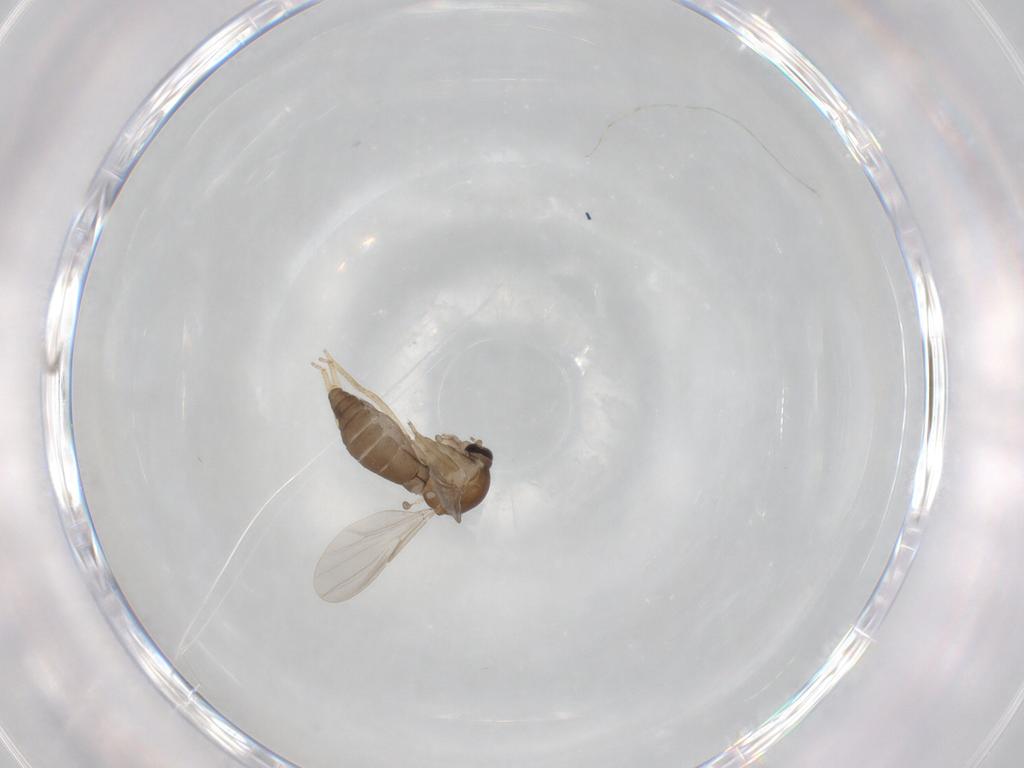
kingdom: Animalia
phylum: Arthropoda
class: Insecta
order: Diptera
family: Ceratopogonidae
